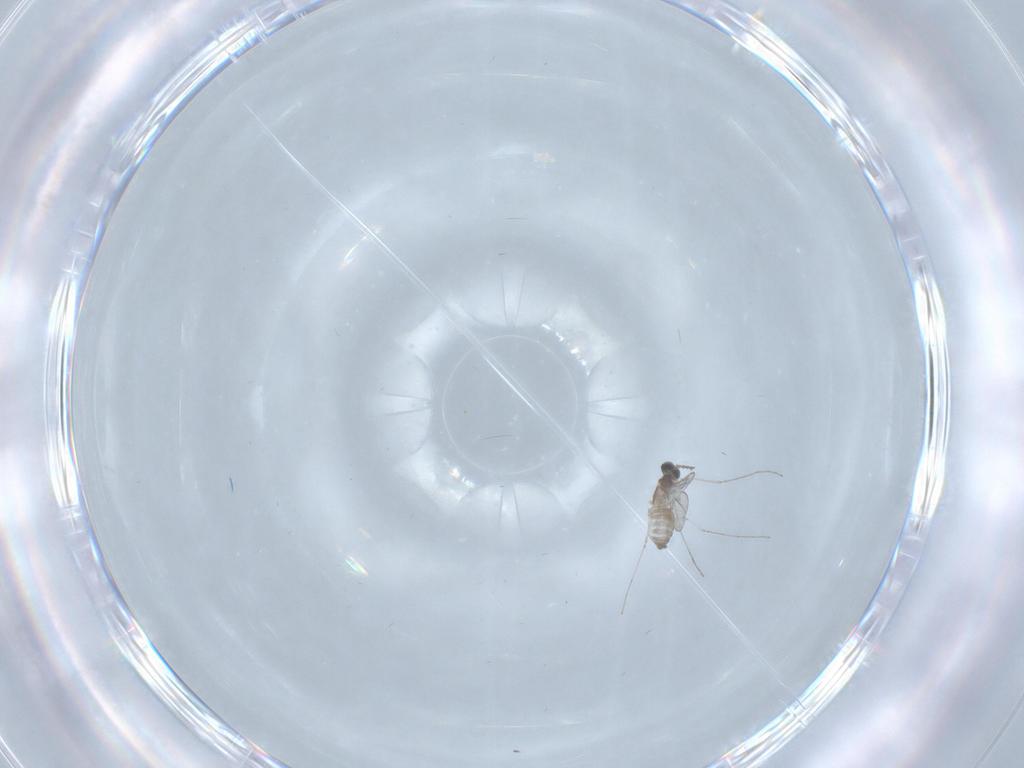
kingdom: Animalia
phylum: Arthropoda
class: Insecta
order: Diptera
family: Cecidomyiidae
